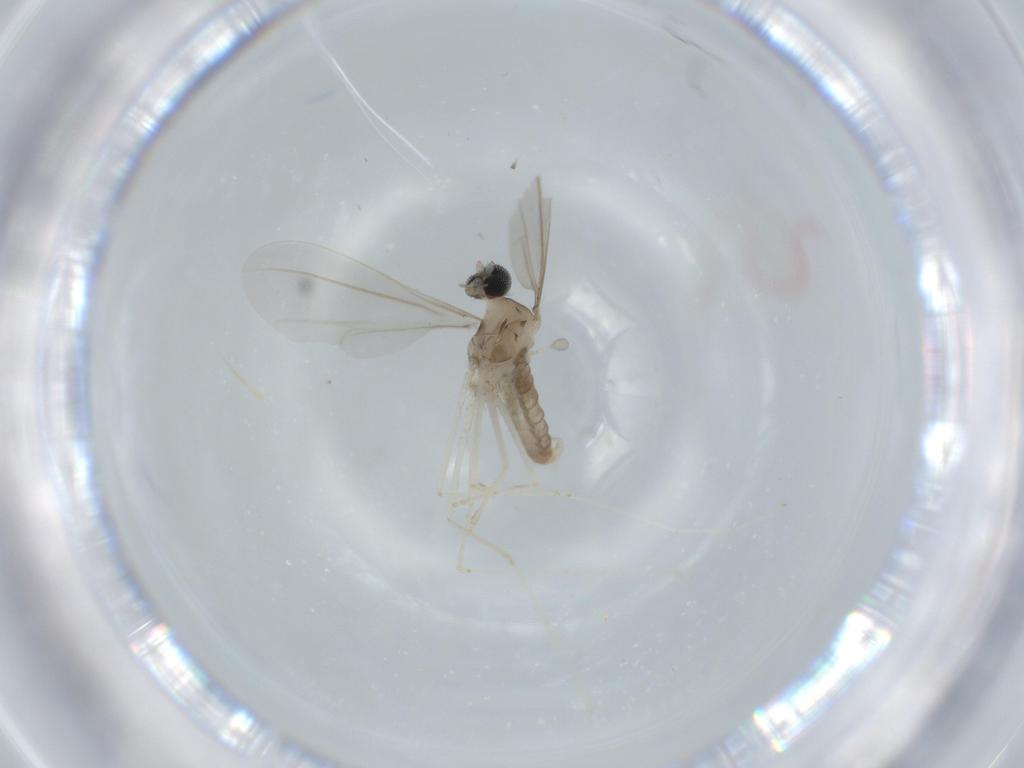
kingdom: Animalia
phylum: Arthropoda
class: Insecta
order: Diptera
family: Cecidomyiidae
